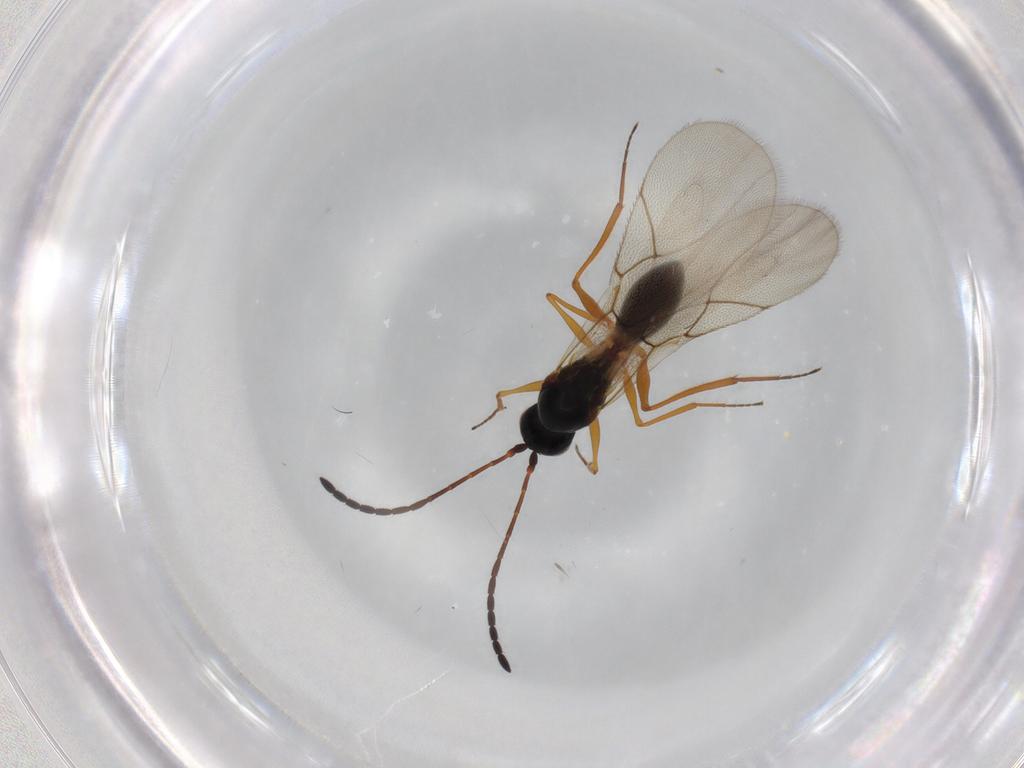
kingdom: Animalia
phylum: Arthropoda
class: Insecta
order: Hymenoptera
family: Figitidae
